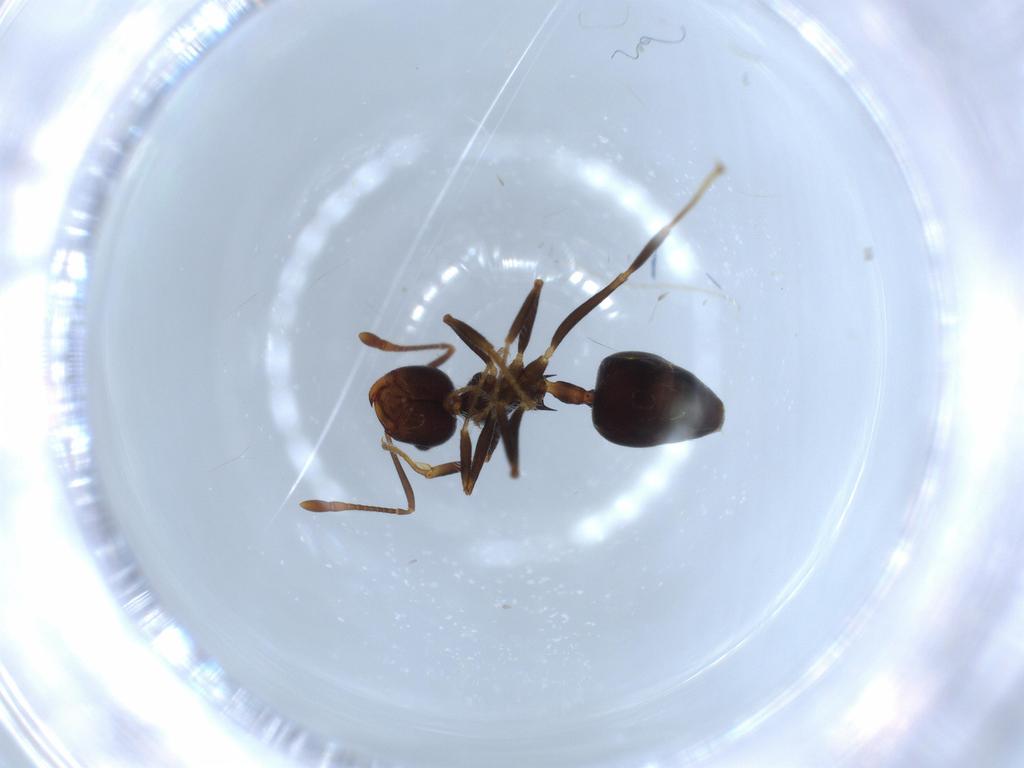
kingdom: Animalia
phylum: Arthropoda
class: Insecta
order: Hymenoptera
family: Formicidae
